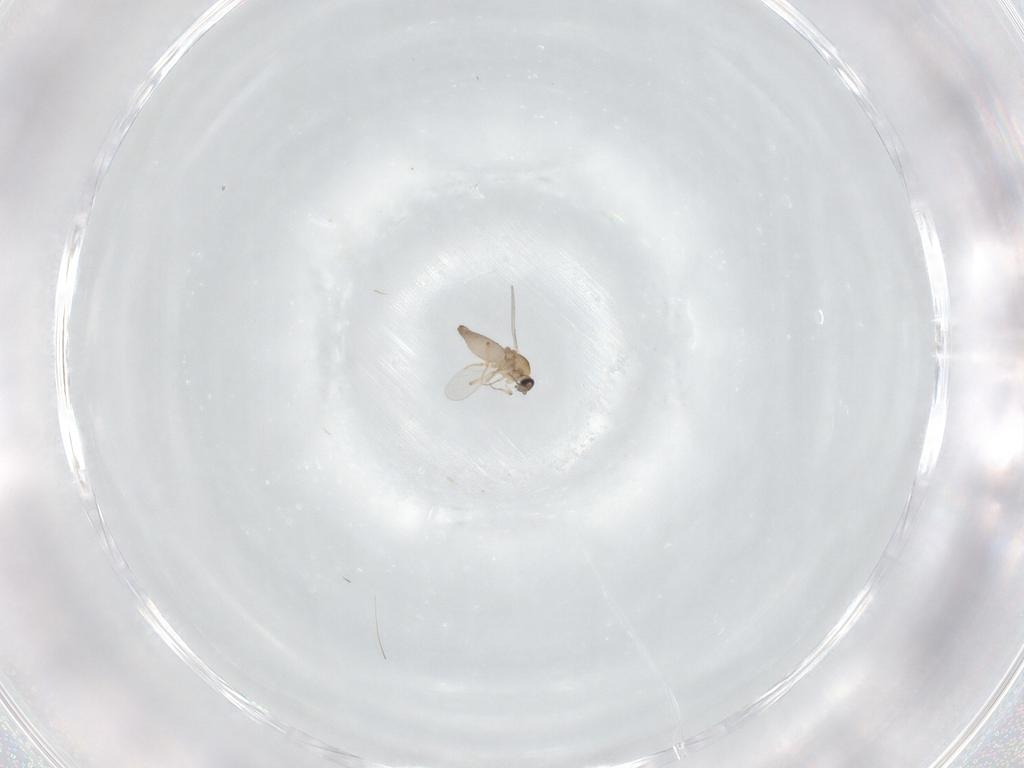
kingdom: Animalia
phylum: Arthropoda
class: Insecta
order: Diptera
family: Ceratopogonidae
